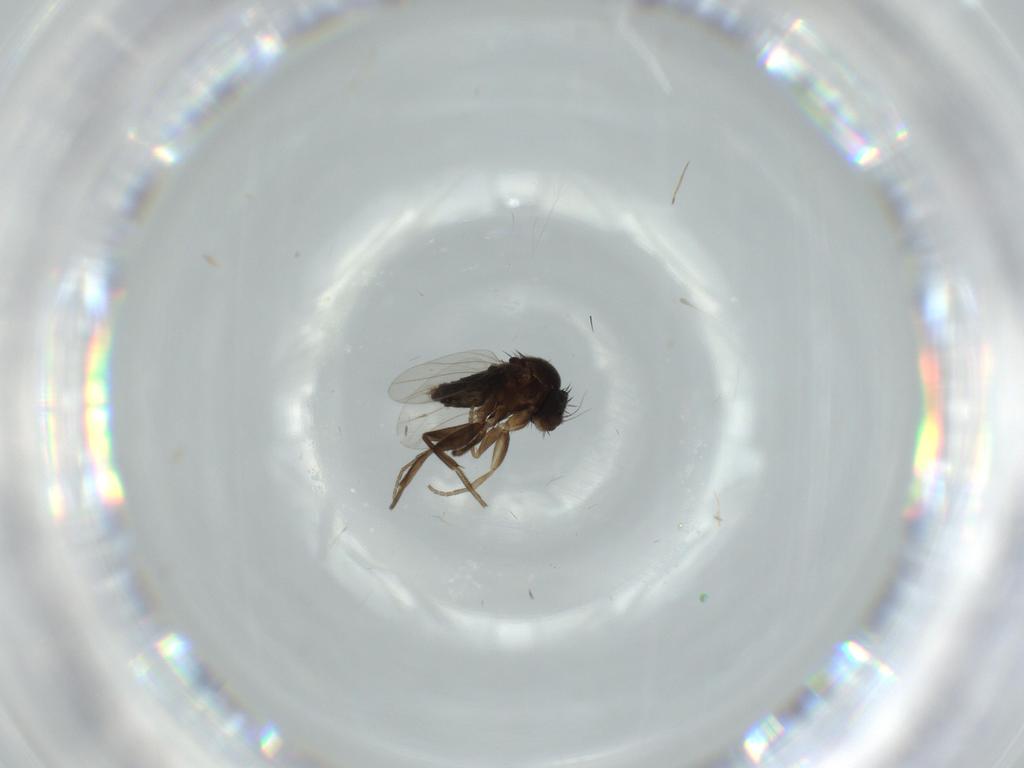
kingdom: Animalia
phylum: Arthropoda
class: Insecta
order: Diptera
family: Phoridae
